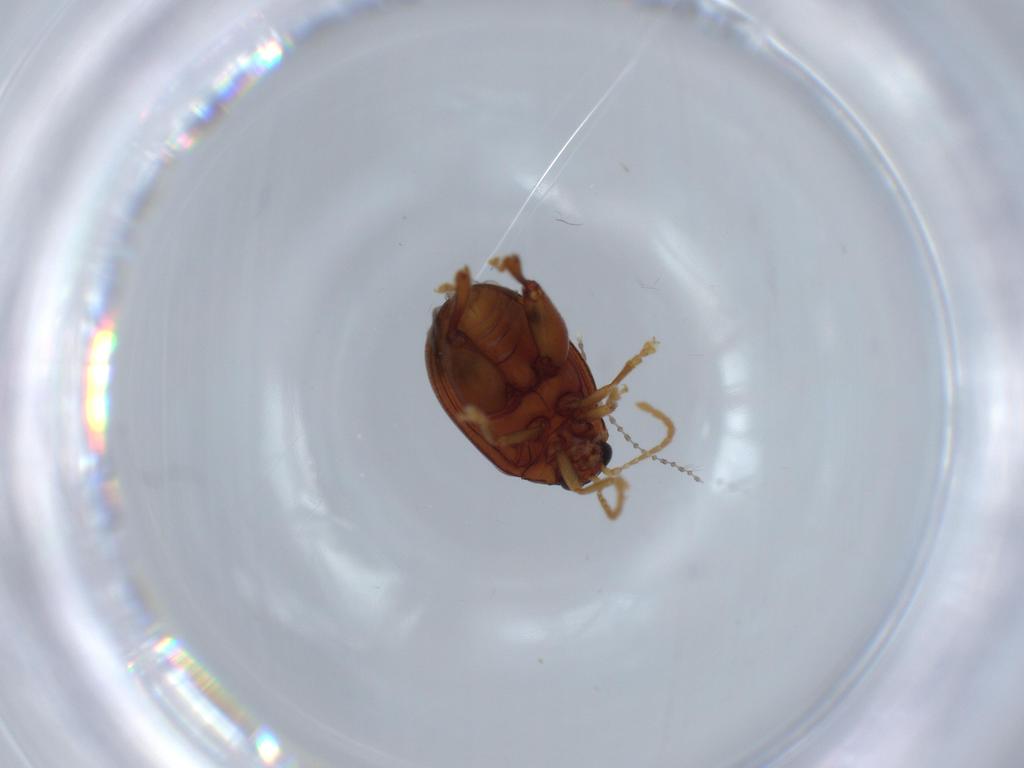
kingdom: Animalia
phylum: Arthropoda
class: Insecta
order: Coleoptera
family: Chrysomelidae
